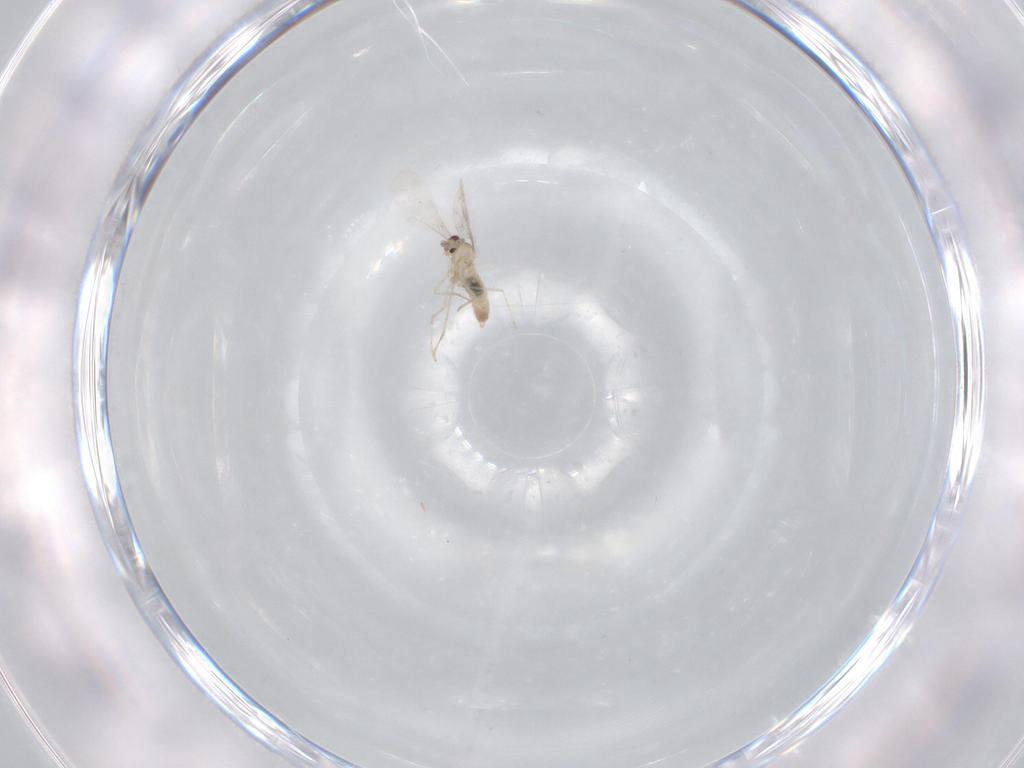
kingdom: Animalia
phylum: Arthropoda
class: Insecta
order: Diptera
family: Cecidomyiidae
